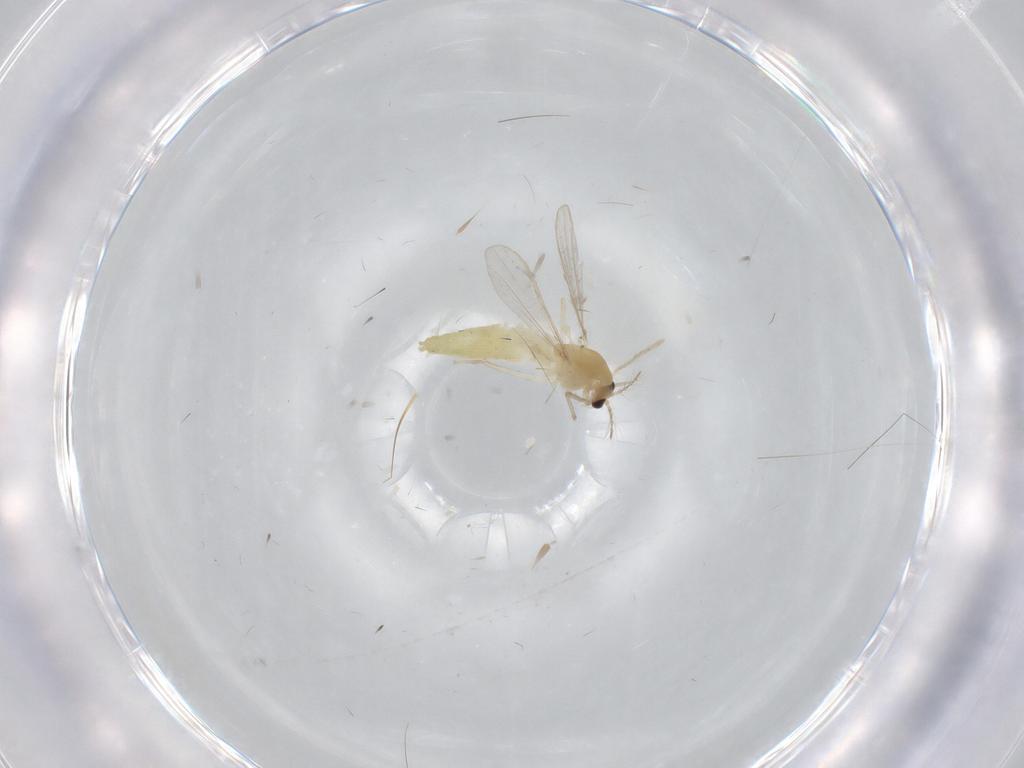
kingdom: Animalia
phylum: Arthropoda
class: Insecta
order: Diptera
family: Chironomidae
